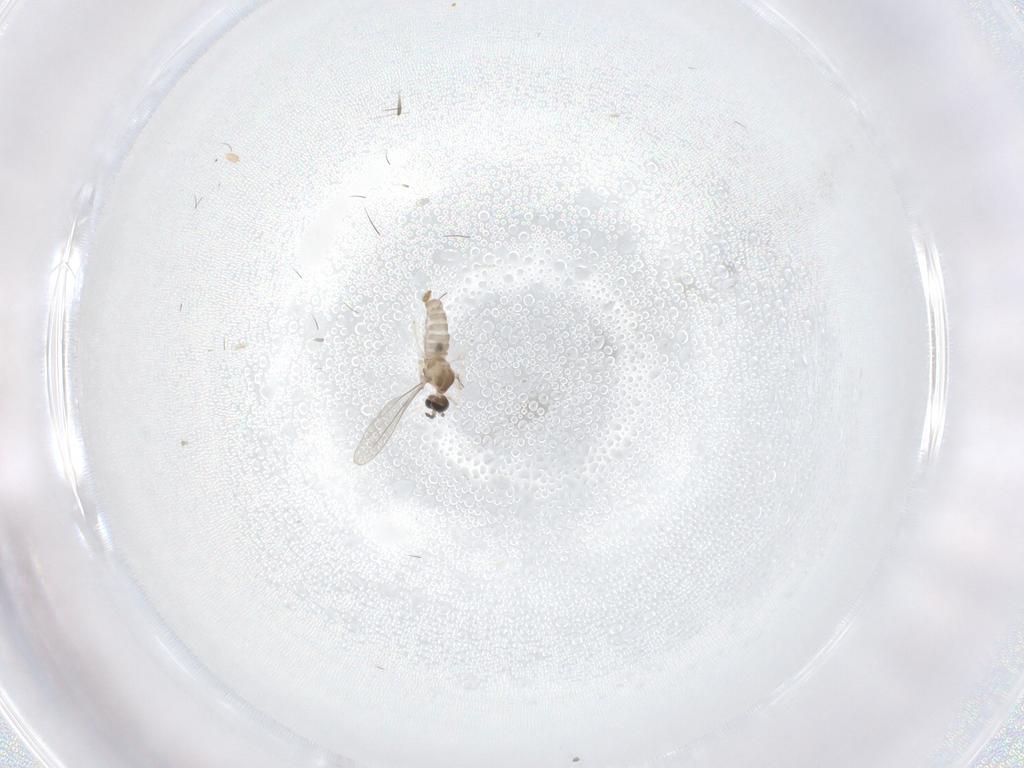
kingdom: Animalia
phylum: Arthropoda
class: Insecta
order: Diptera
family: Cecidomyiidae
